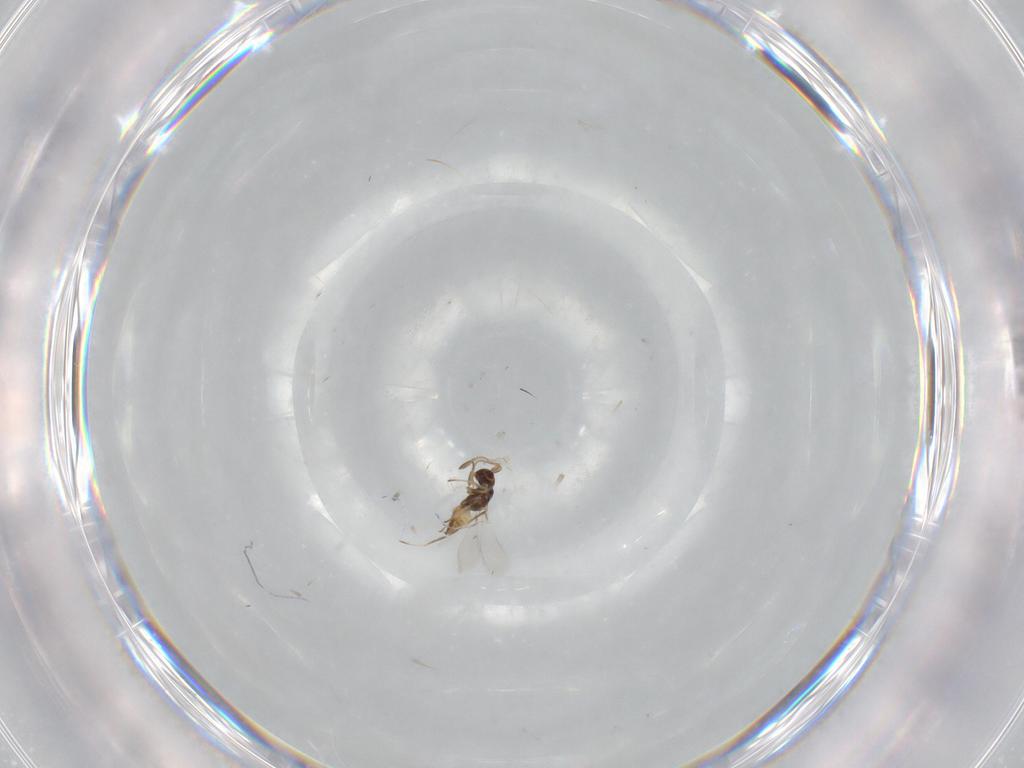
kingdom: Animalia
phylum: Arthropoda
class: Insecta
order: Hymenoptera
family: Mymaridae
